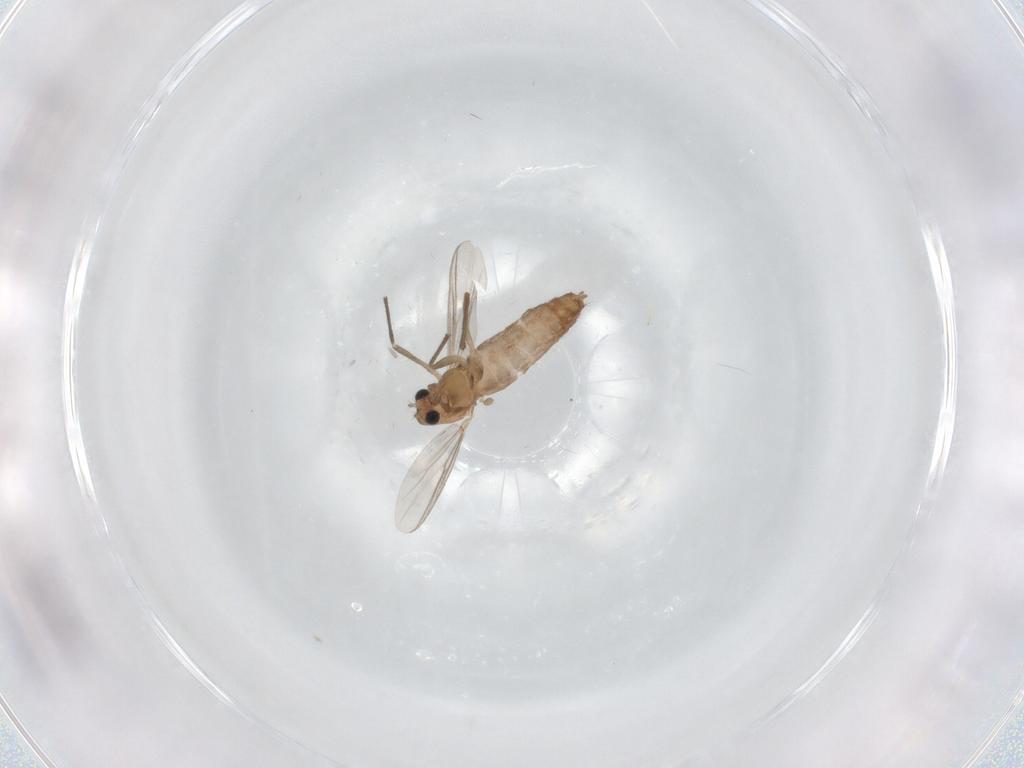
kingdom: Animalia
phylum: Arthropoda
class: Insecta
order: Diptera
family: Chironomidae
